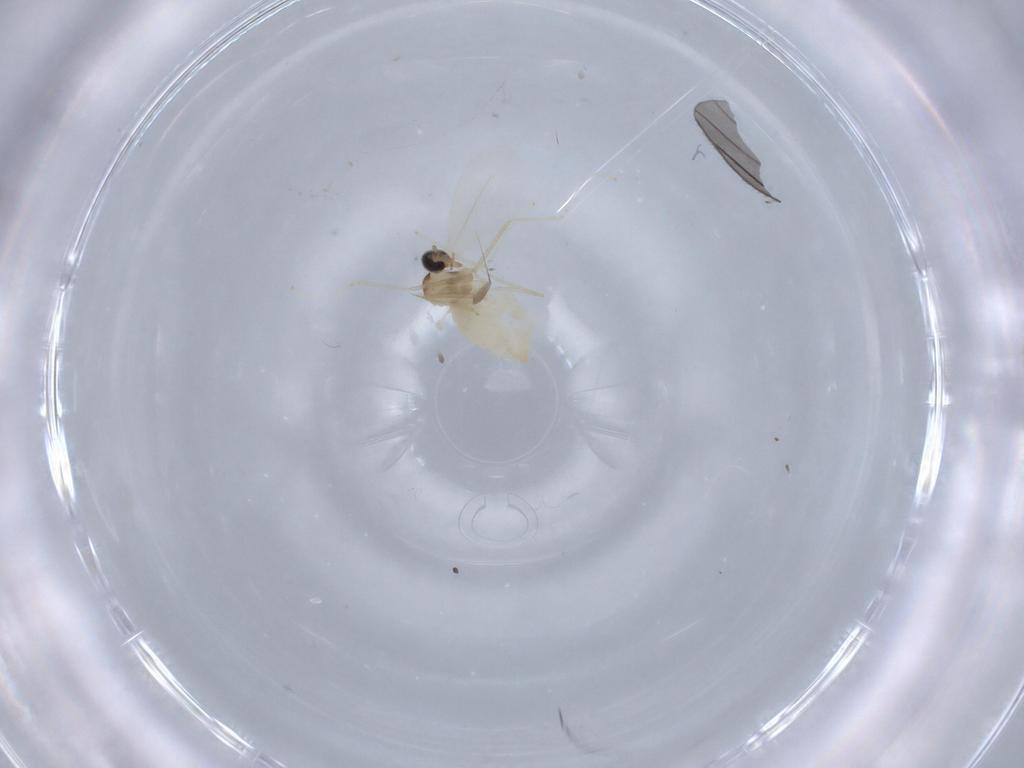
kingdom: Animalia
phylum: Arthropoda
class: Insecta
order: Diptera
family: Cecidomyiidae
